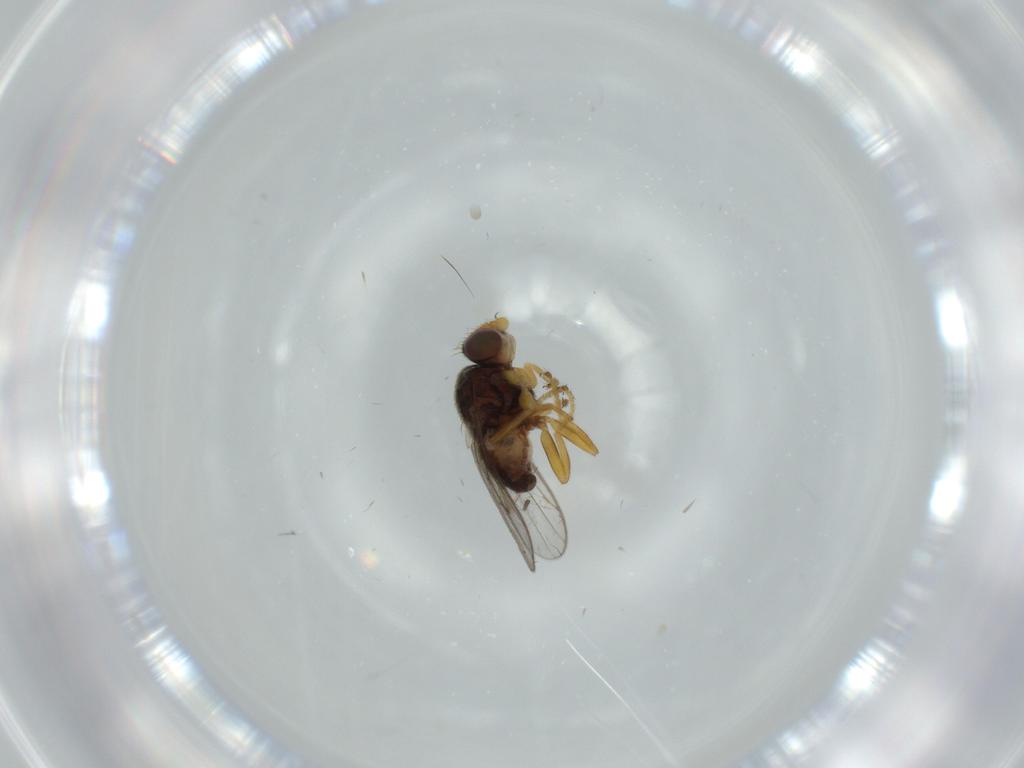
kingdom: Animalia
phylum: Arthropoda
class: Insecta
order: Diptera
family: Chloropidae
